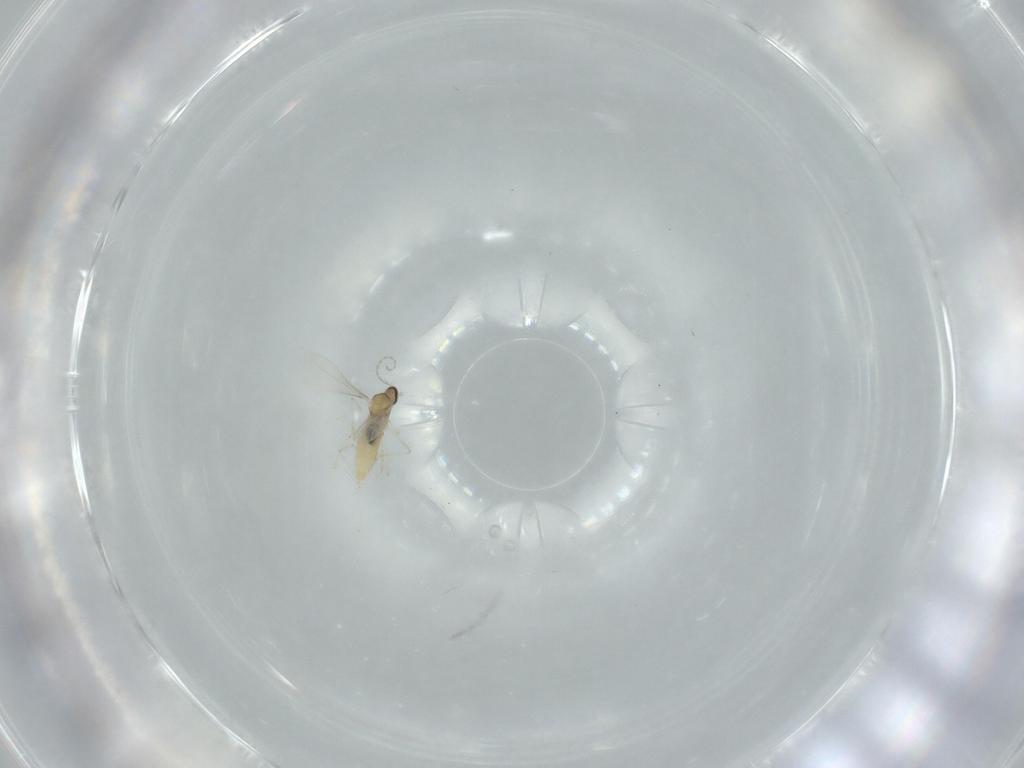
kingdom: Animalia
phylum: Arthropoda
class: Insecta
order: Diptera
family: Cecidomyiidae
